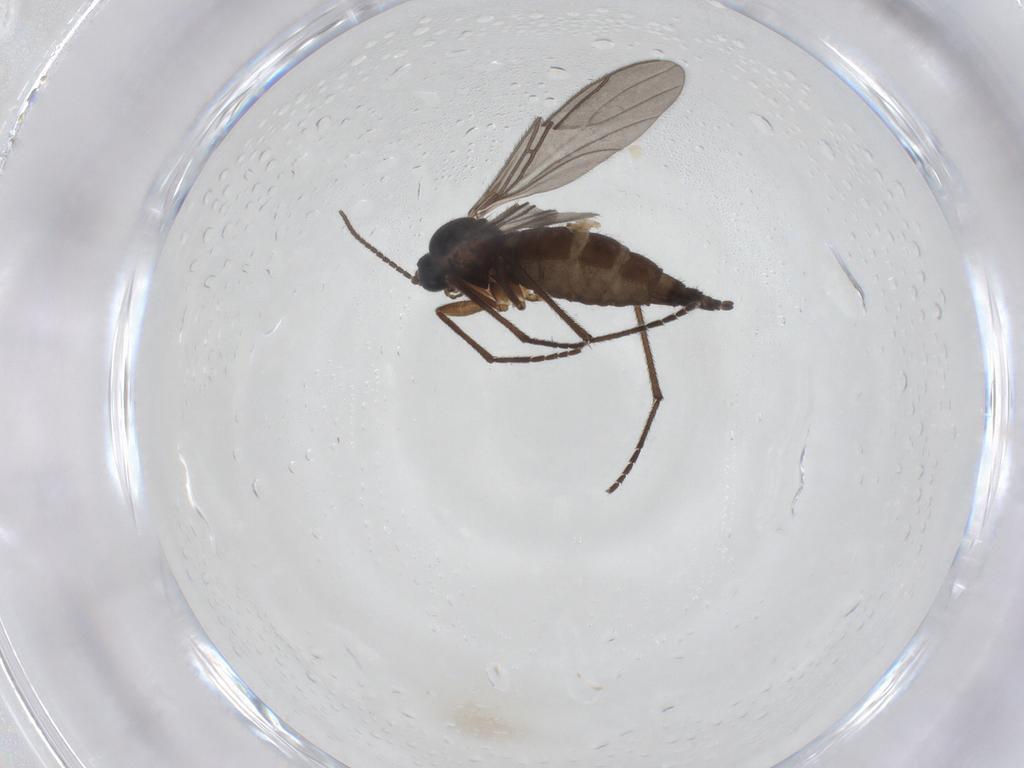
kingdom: Animalia
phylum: Arthropoda
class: Insecta
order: Diptera
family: Sciaridae
